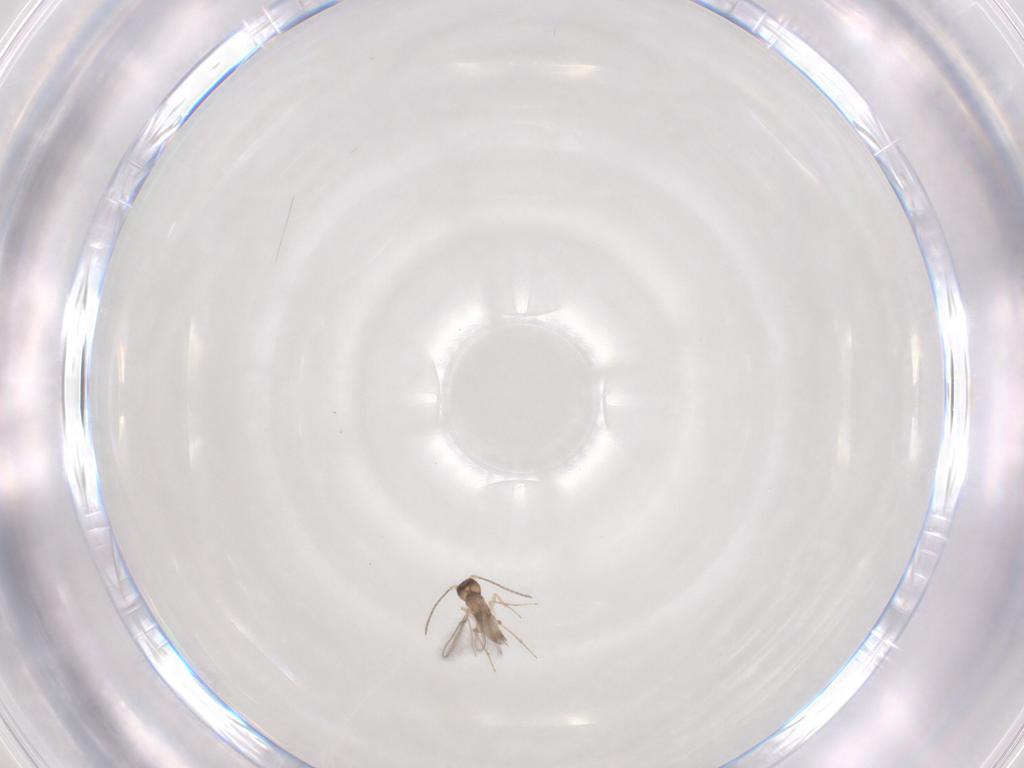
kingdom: Animalia
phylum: Arthropoda
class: Insecta
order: Hymenoptera
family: Mymaridae
